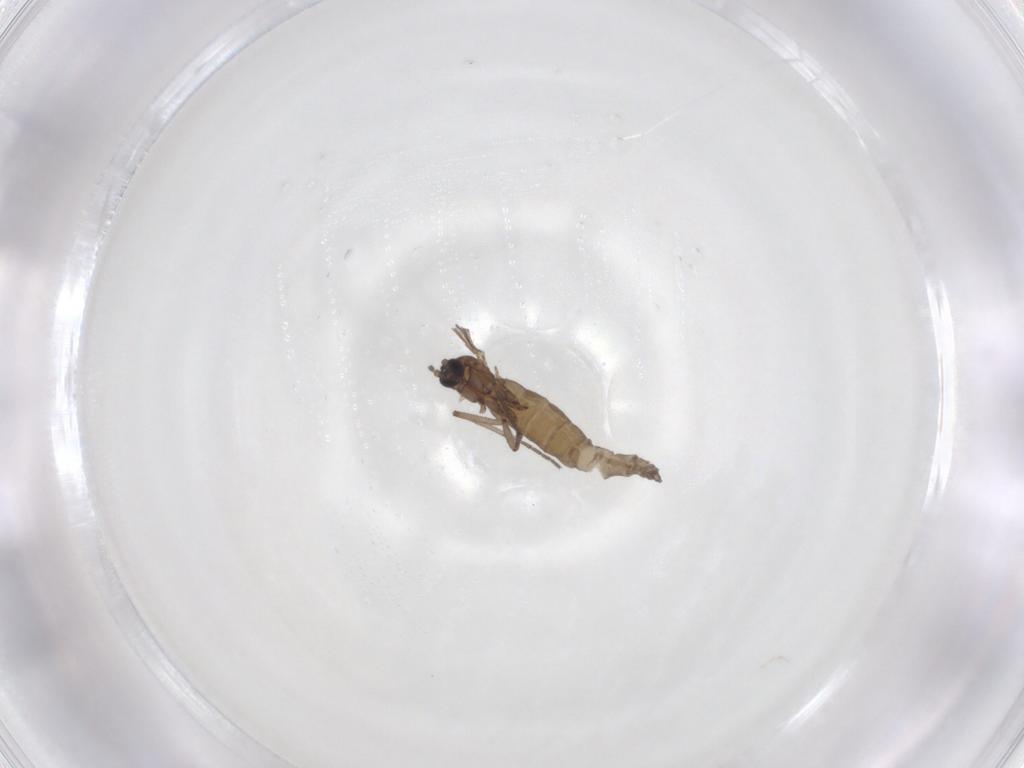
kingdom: Animalia
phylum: Arthropoda
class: Insecta
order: Diptera
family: Sciaridae
